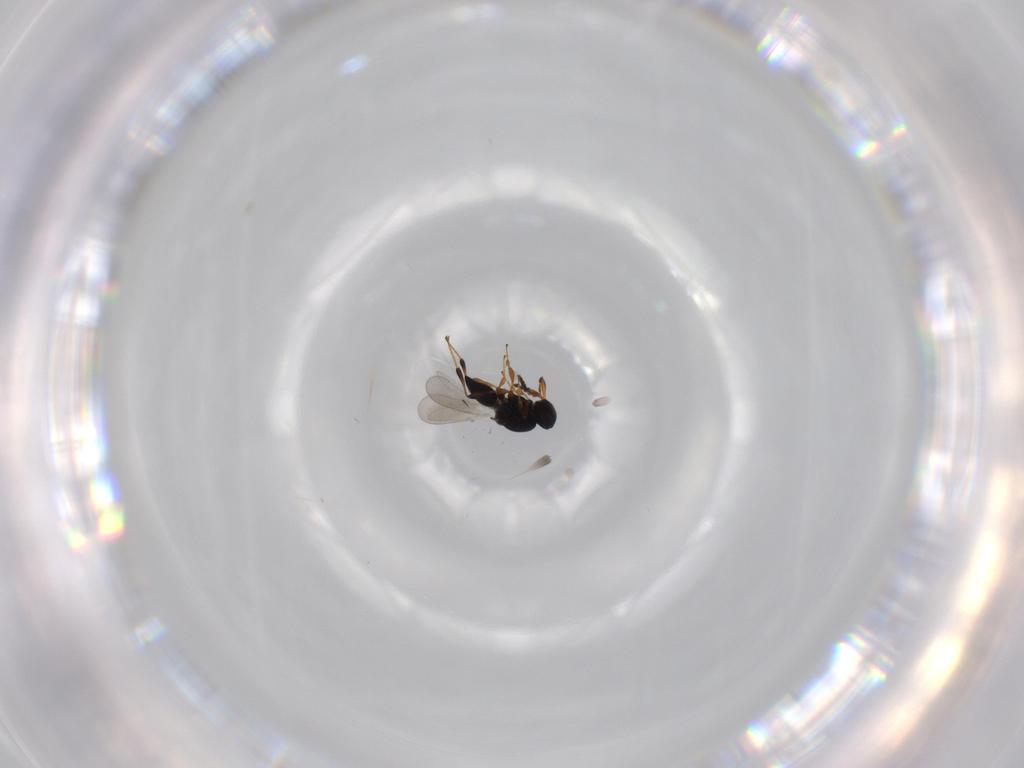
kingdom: Animalia
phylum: Arthropoda
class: Insecta
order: Hymenoptera
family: Platygastridae
